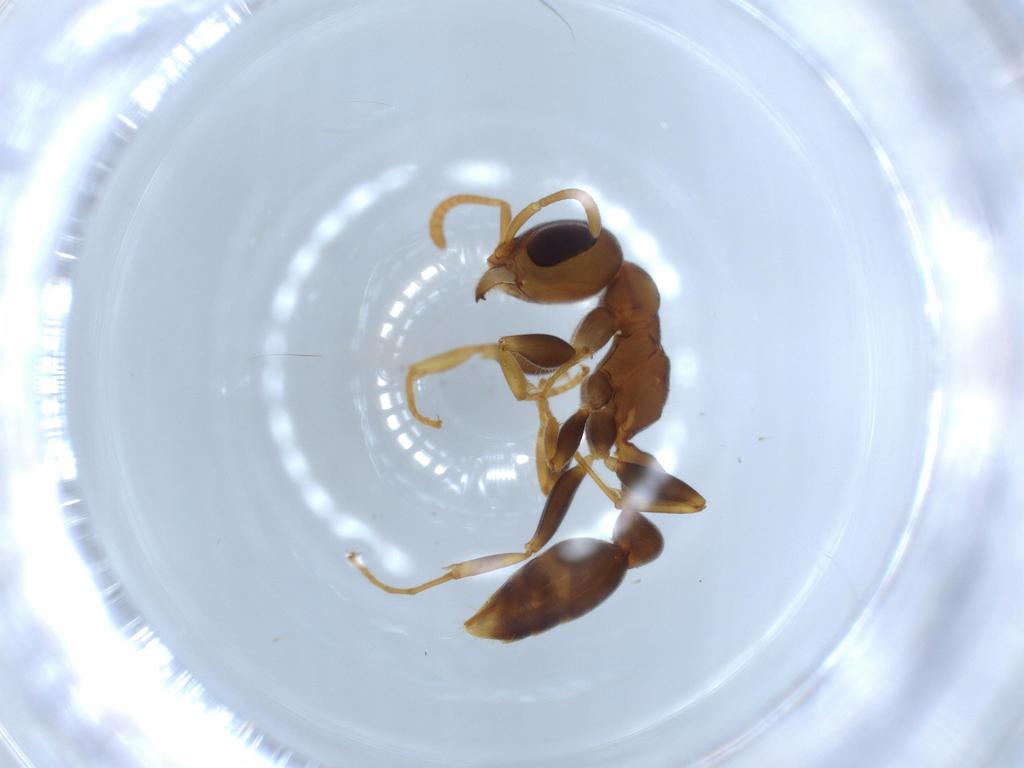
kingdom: Animalia
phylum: Arthropoda
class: Insecta
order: Hymenoptera
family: Formicidae
